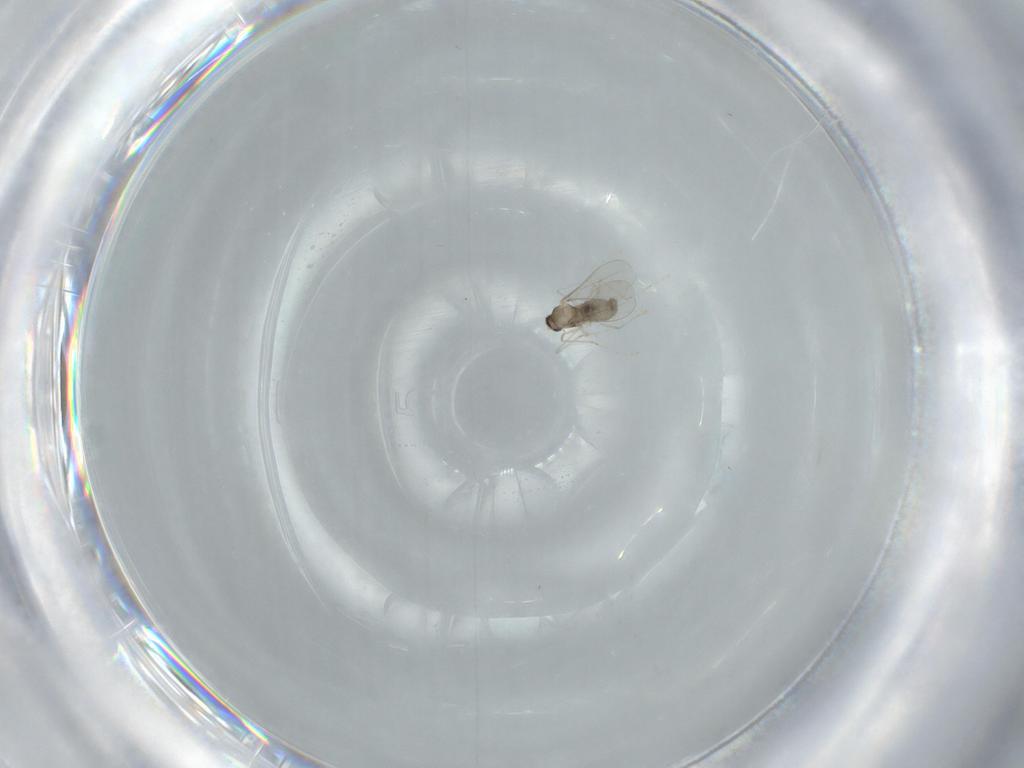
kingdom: Animalia
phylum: Arthropoda
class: Insecta
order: Diptera
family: Cecidomyiidae
